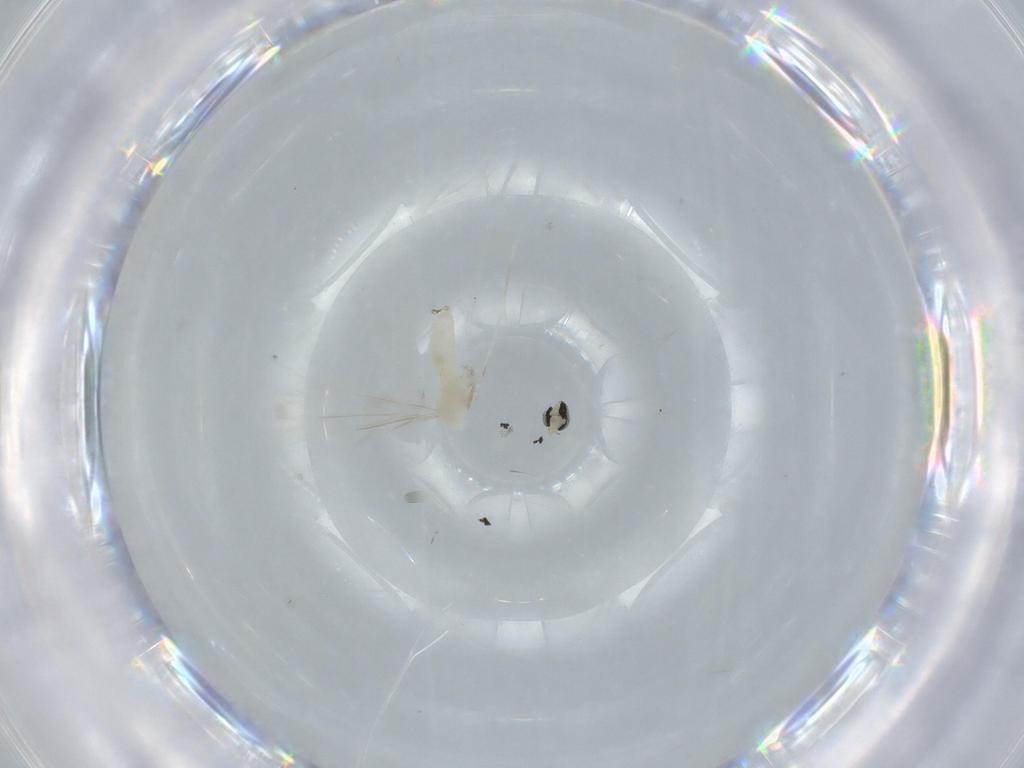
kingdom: Animalia
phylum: Arthropoda
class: Insecta
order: Diptera
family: Cecidomyiidae
